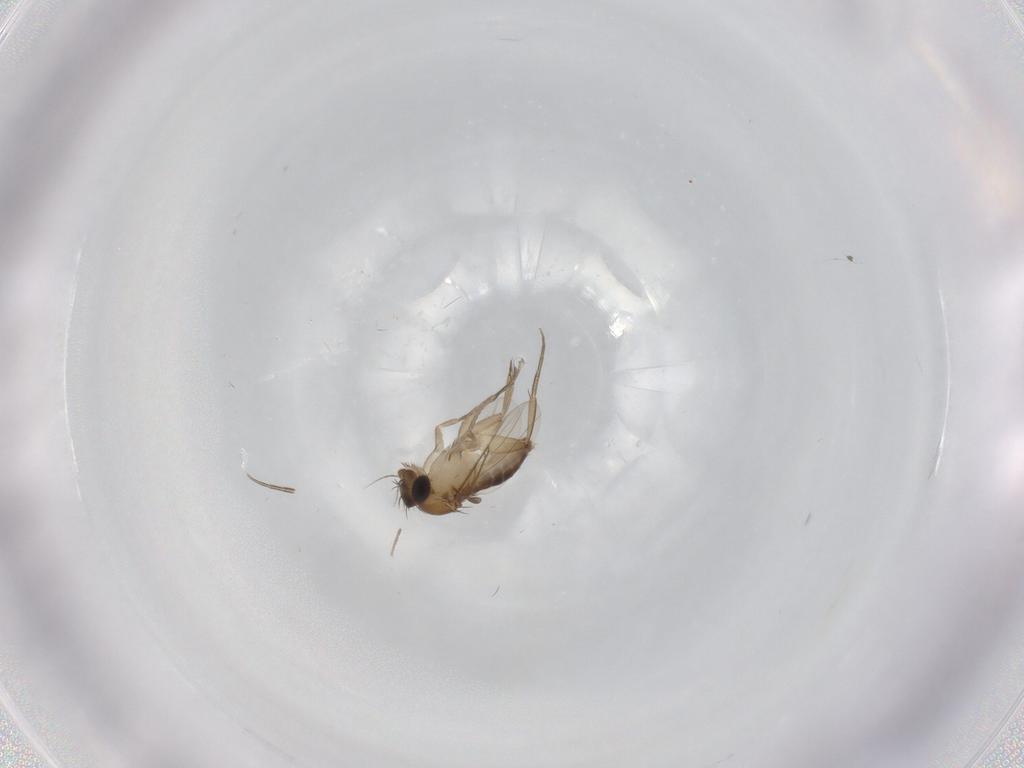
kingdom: Animalia
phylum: Arthropoda
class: Insecta
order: Diptera
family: Phoridae
